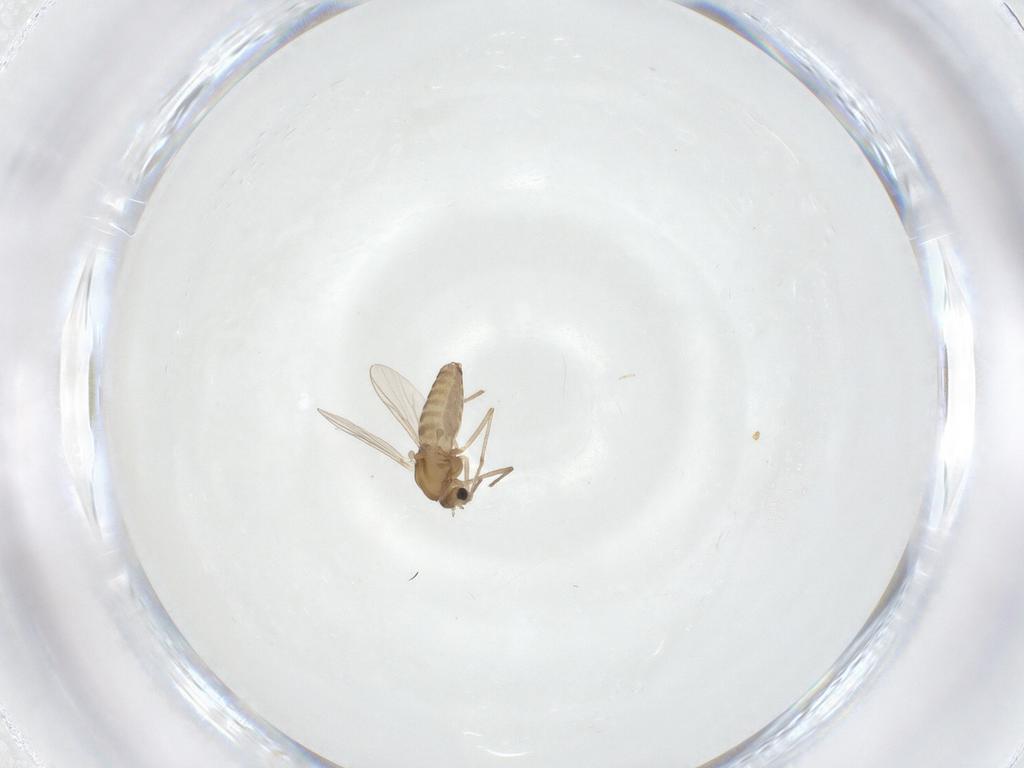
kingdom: Animalia
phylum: Arthropoda
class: Insecta
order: Diptera
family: Chironomidae
